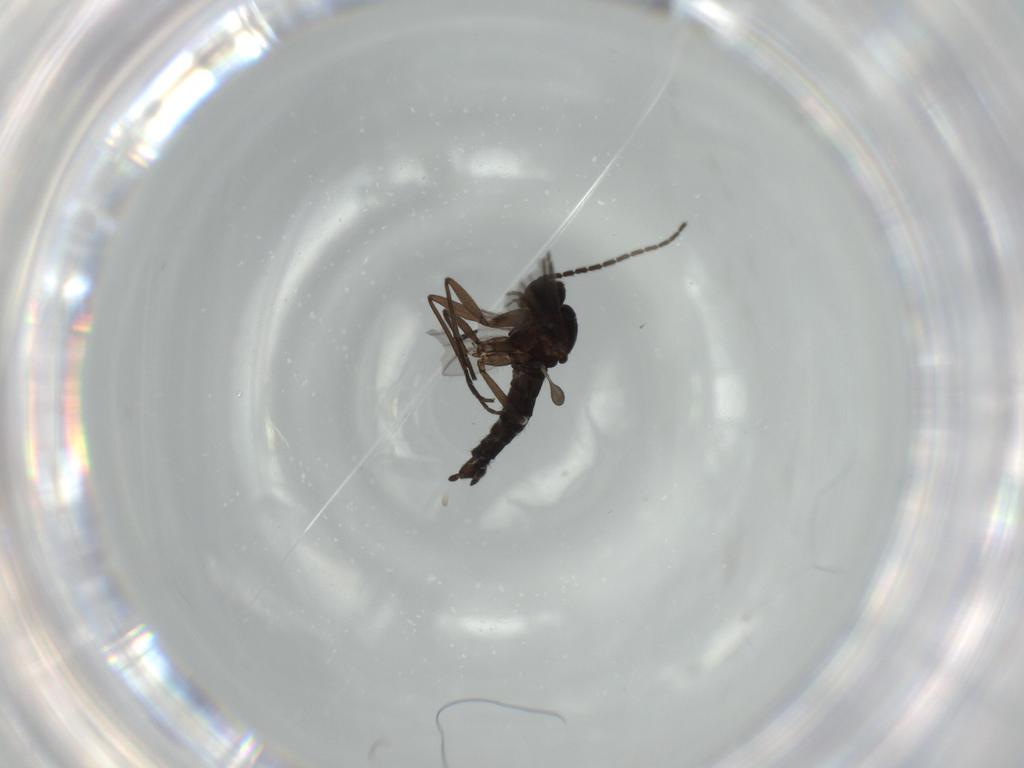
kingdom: Animalia
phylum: Arthropoda
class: Insecta
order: Diptera
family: Sciaridae
